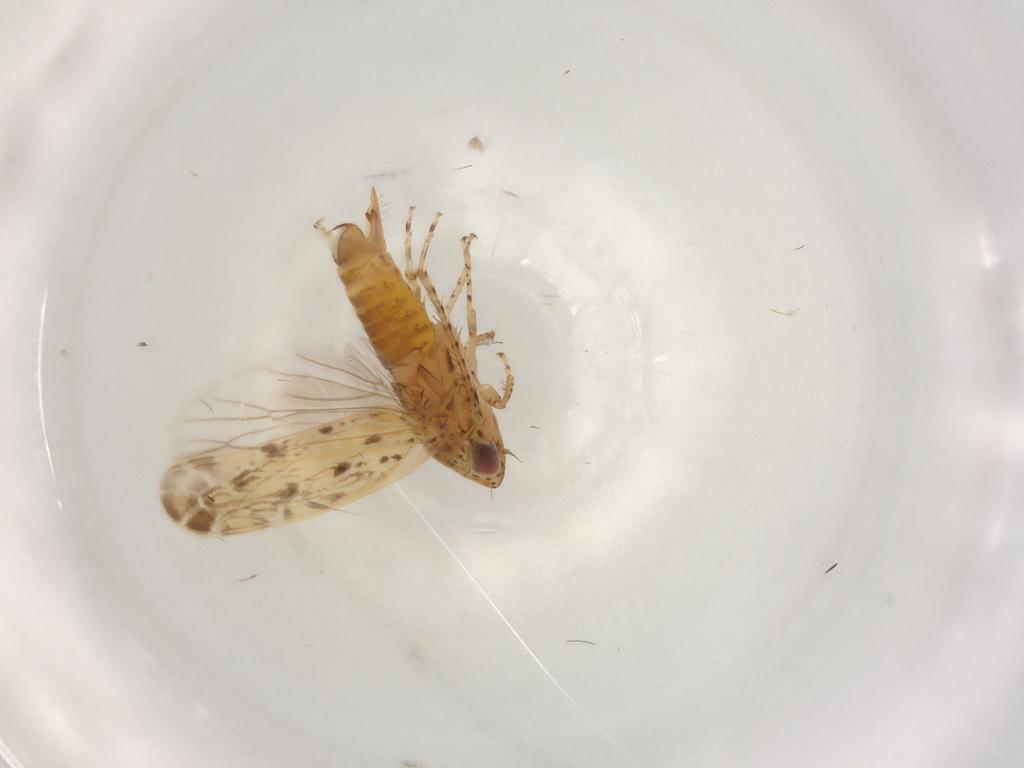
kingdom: Animalia
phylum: Arthropoda
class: Insecta
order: Hemiptera
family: Cicadellidae
